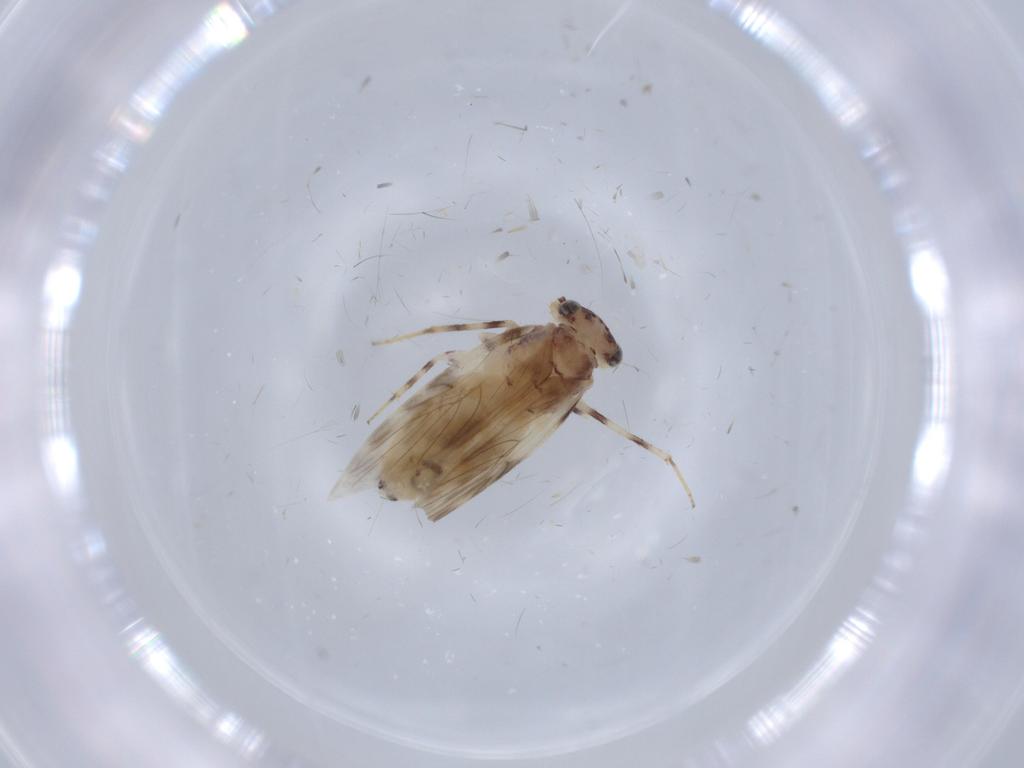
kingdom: Animalia
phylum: Arthropoda
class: Insecta
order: Psocodea
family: Lepidopsocidae
